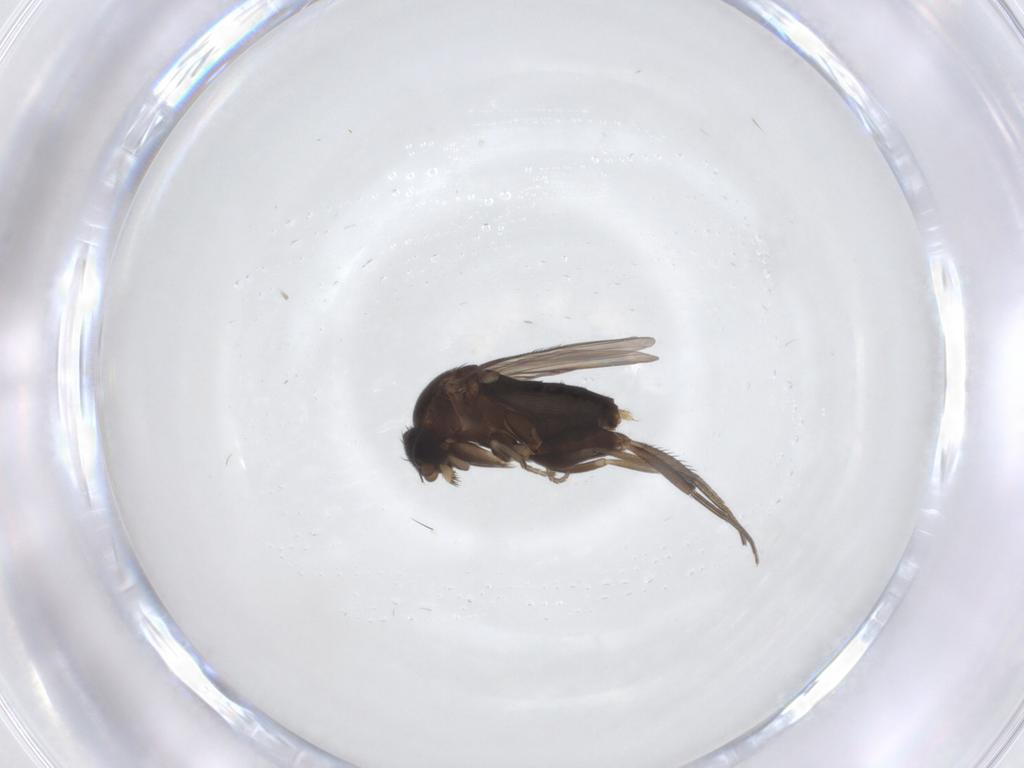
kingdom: Animalia
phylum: Arthropoda
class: Insecta
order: Diptera
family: Phoridae
